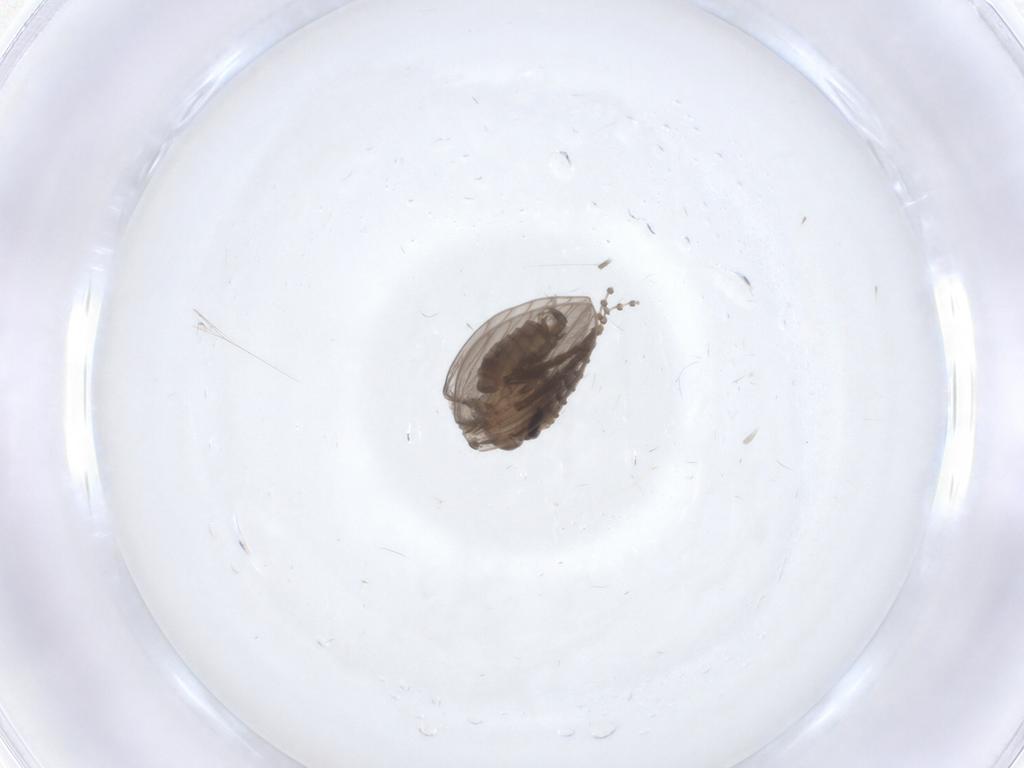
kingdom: Animalia
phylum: Arthropoda
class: Insecta
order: Diptera
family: Psychodidae
